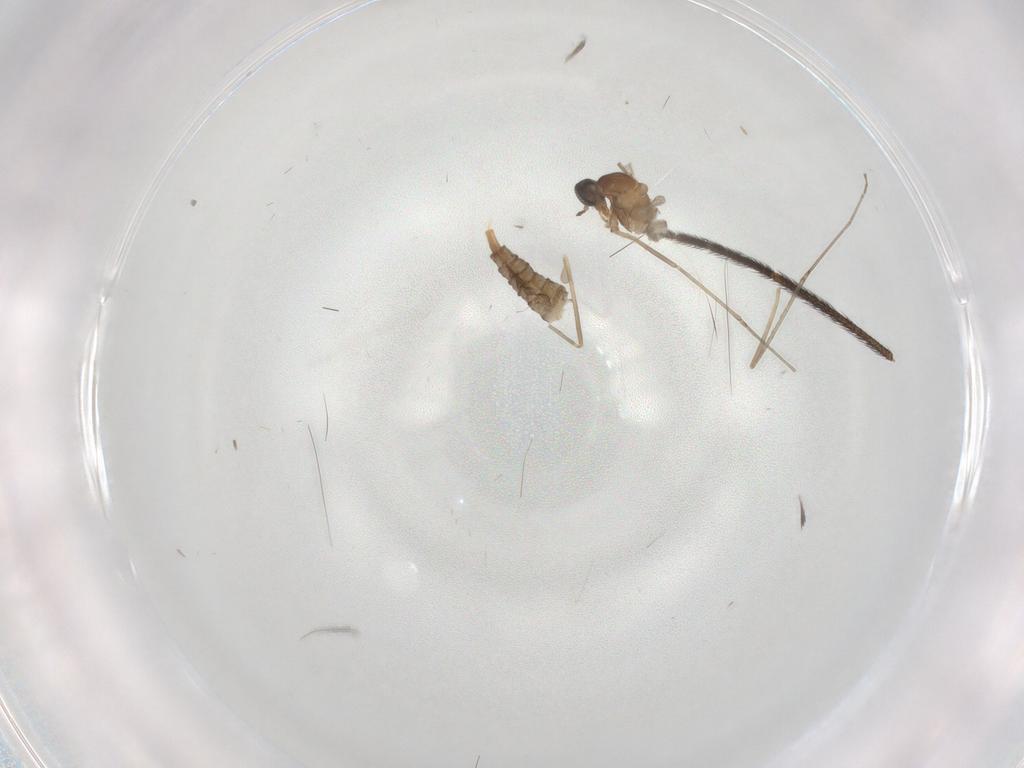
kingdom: Animalia
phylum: Arthropoda
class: Insecta
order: Diptera
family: Cecidomyiidae
